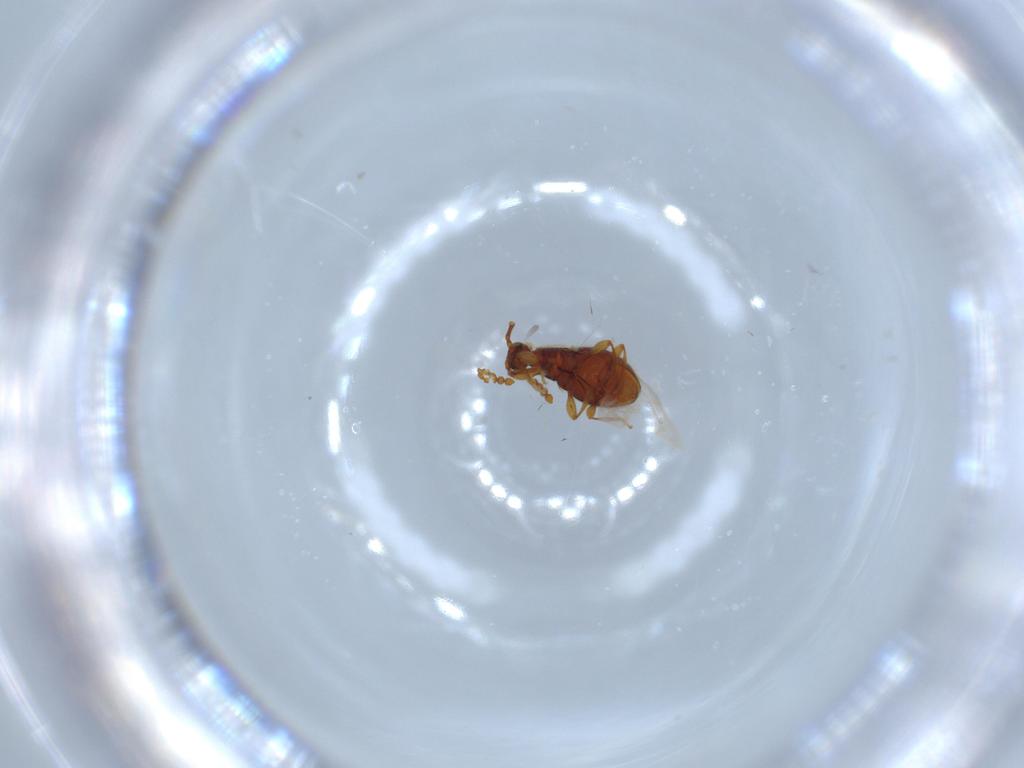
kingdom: Animalia
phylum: Arthropoda
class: Insecta
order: Coleoptera
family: Staphylinidae
